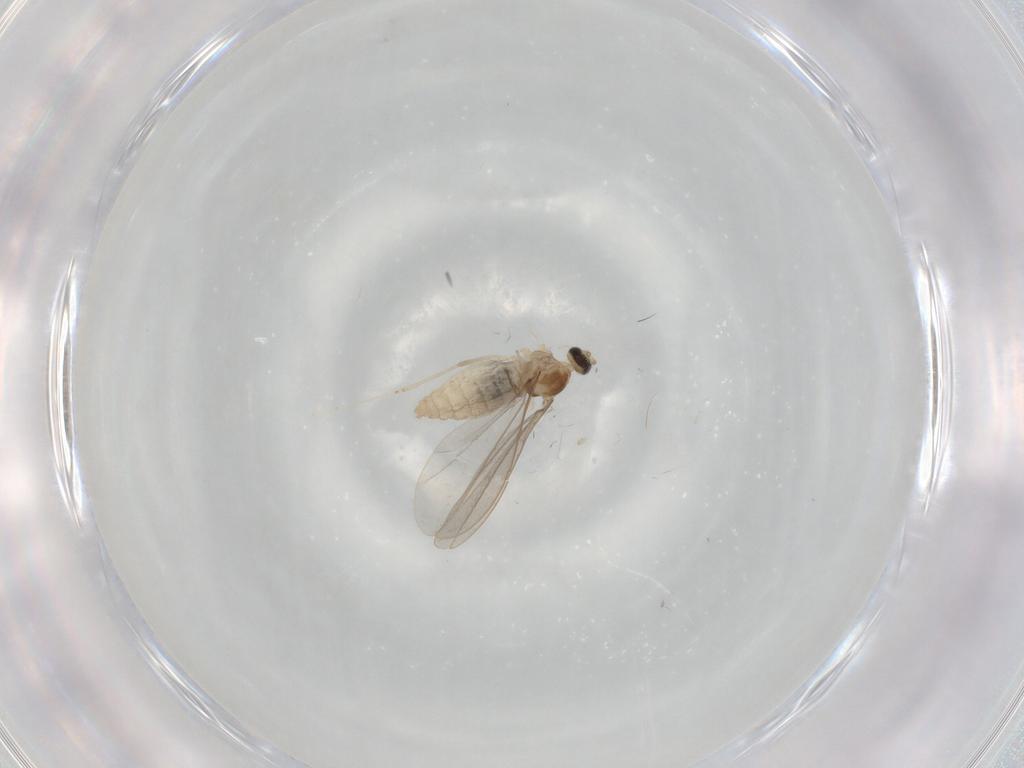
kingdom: Animalia
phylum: Arthropoda
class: Insecta
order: Diptera
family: Cecidomyiidae
